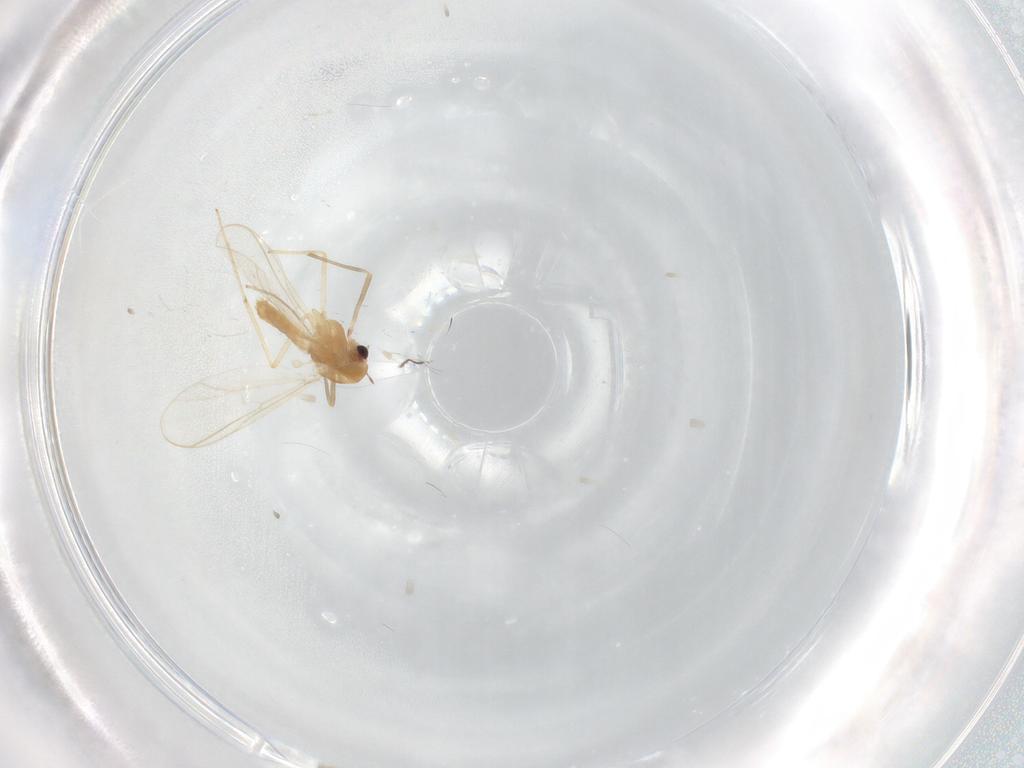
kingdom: Animalia
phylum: Arthropoda
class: Insecta
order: Diptera
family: Chironomidae
